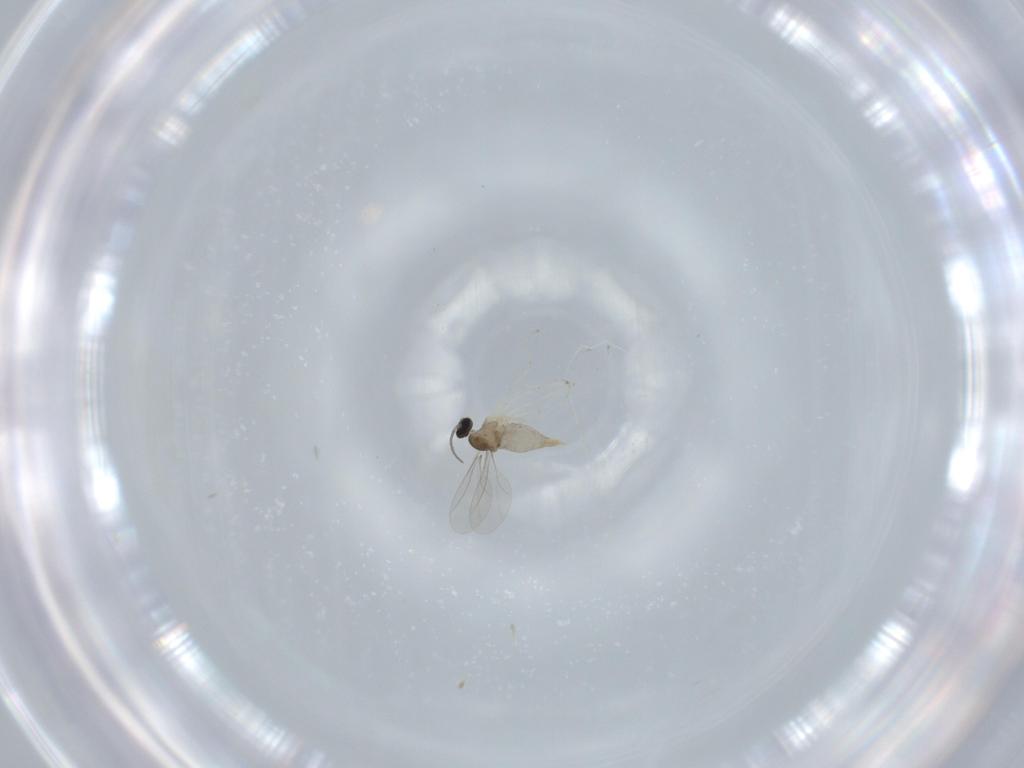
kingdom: Animalia
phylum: Arthropoda
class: Insecta
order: Diptera
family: Cecidomyiidae
